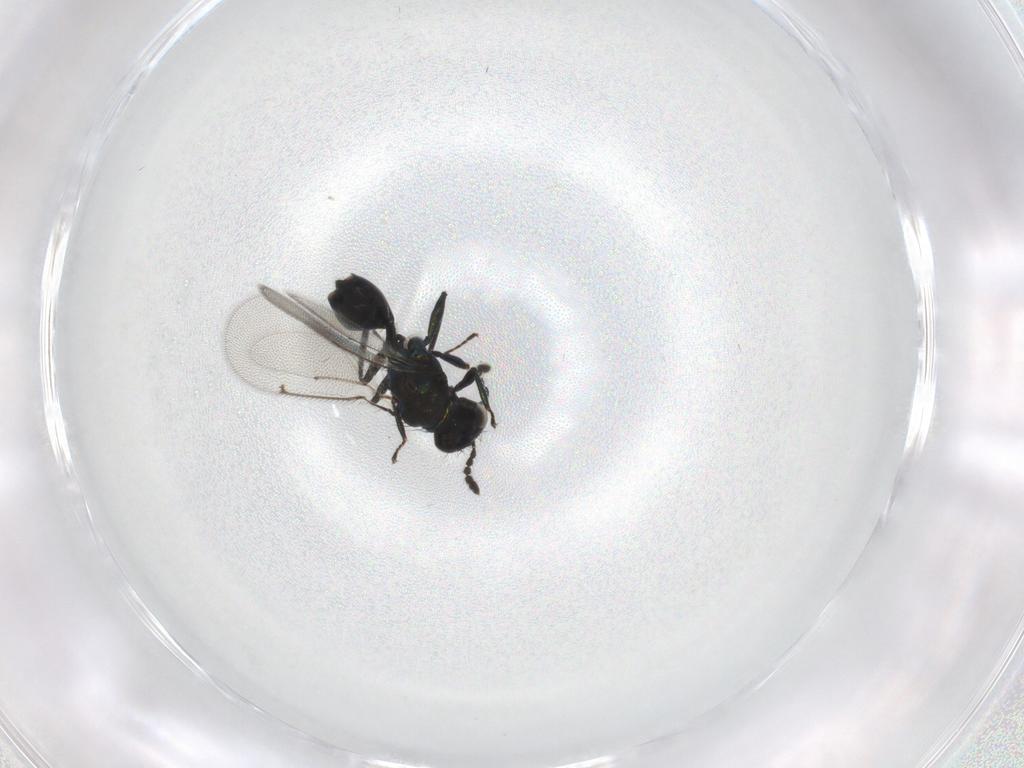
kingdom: Animalia
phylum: Arthropoda
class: Insecta
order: Hymenoptera
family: Eulophidae
